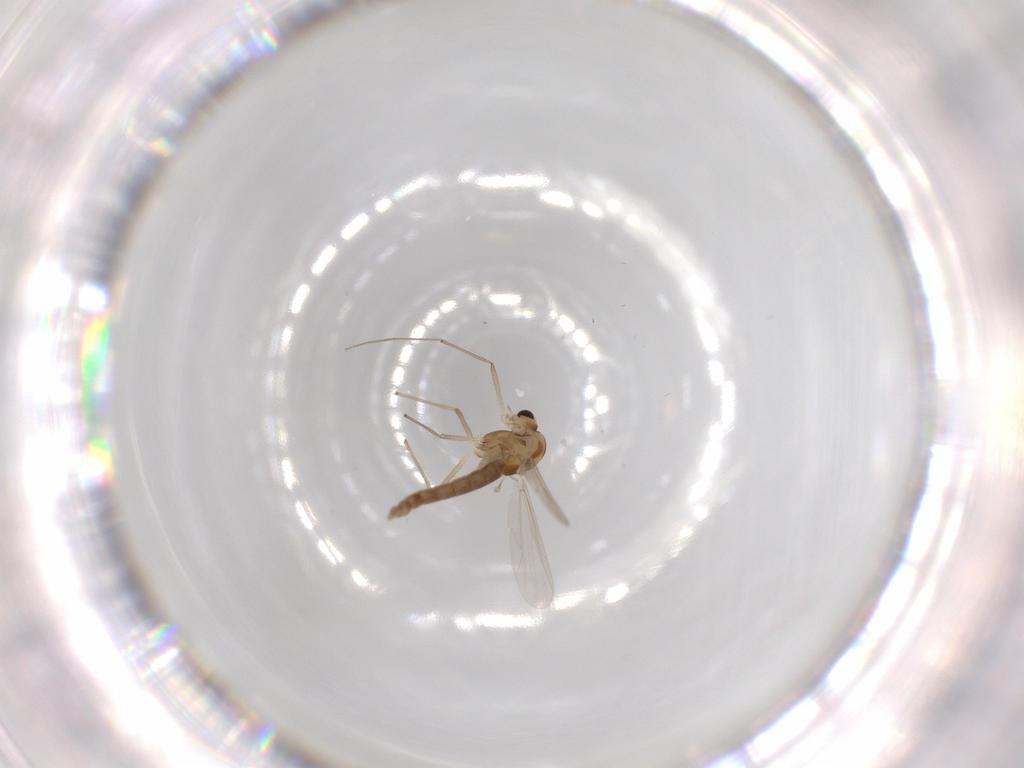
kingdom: Animalia
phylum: Arthropoda
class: Insecta
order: Diptera
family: Chironomidae
